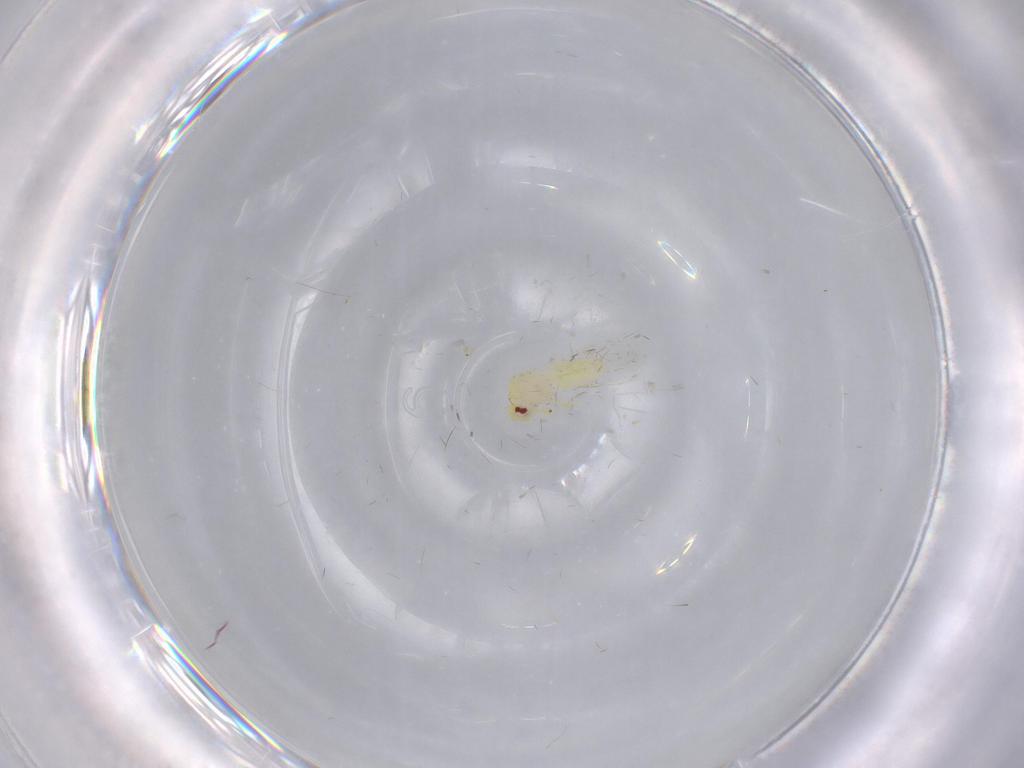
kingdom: Animalia
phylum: Arthropoda
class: Insecta
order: Hemiptera
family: Aleyrodidae
